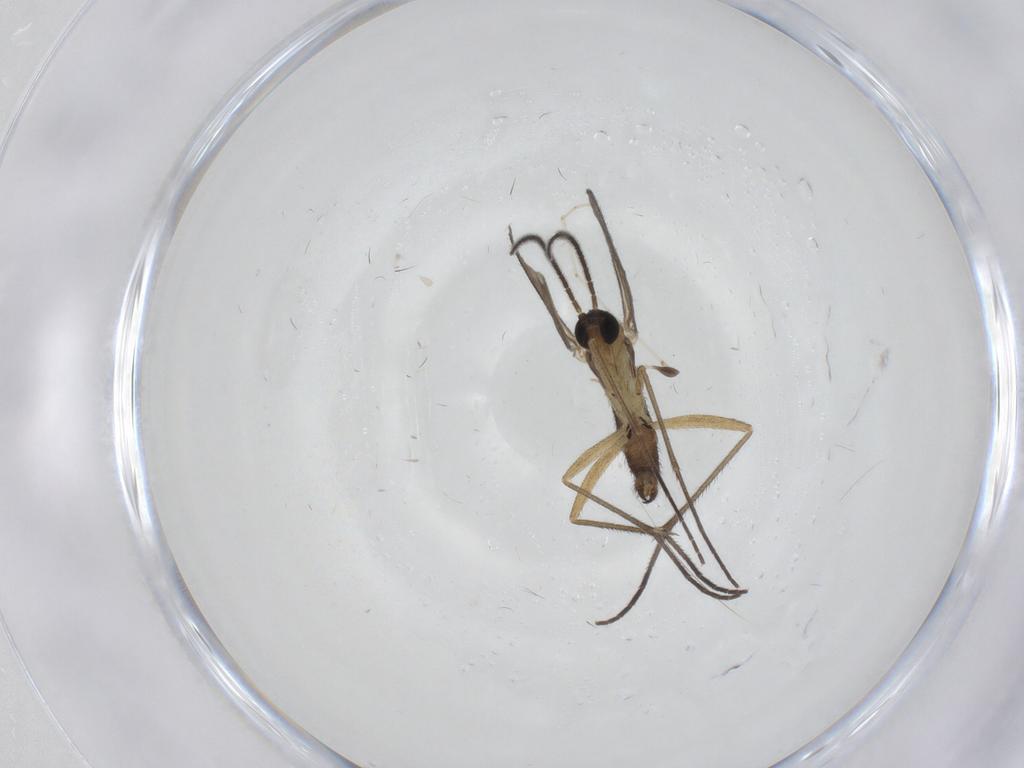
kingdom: Animalia
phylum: Arthropoda
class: Insecta
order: Diptera
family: Sciaridae
